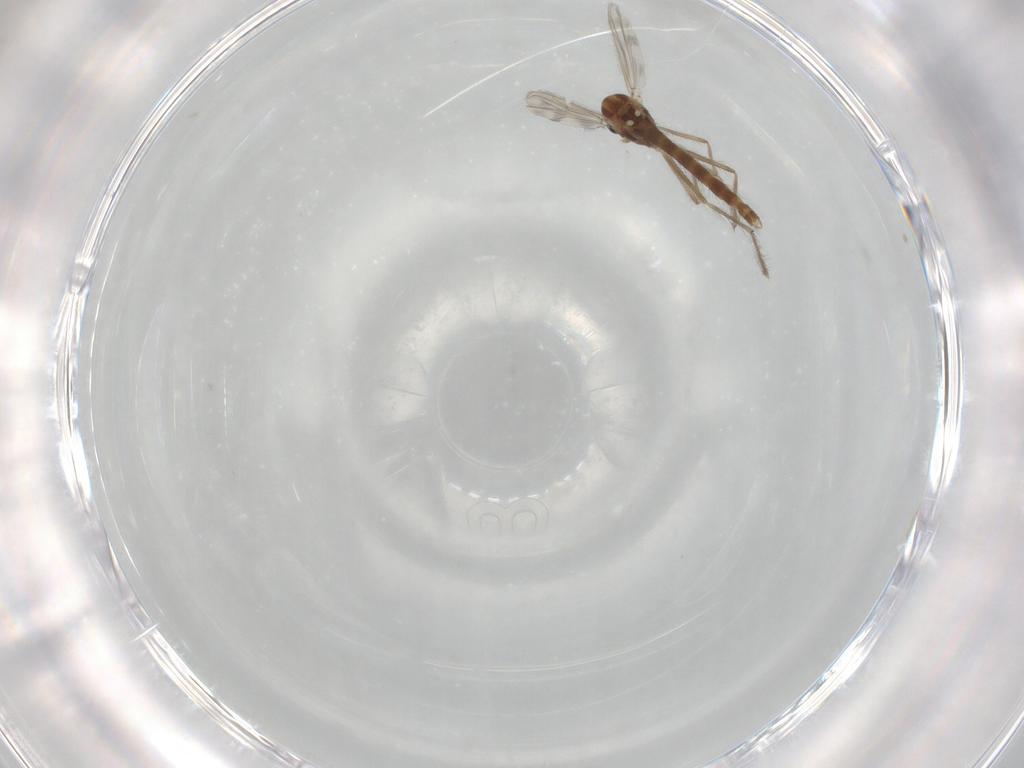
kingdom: Animalia
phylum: Arthropoda
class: Insecta
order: Diptera
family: Chironomidae
